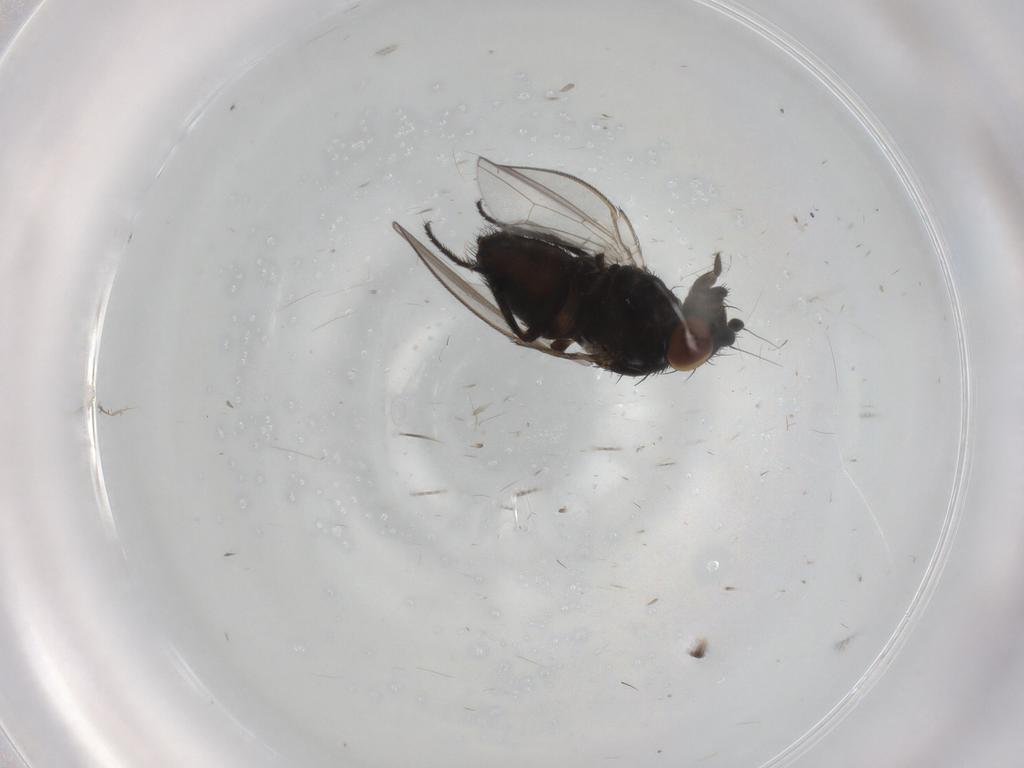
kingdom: Animalia
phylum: Arthropoda
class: Insecta
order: Diptera
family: Milichiidae
